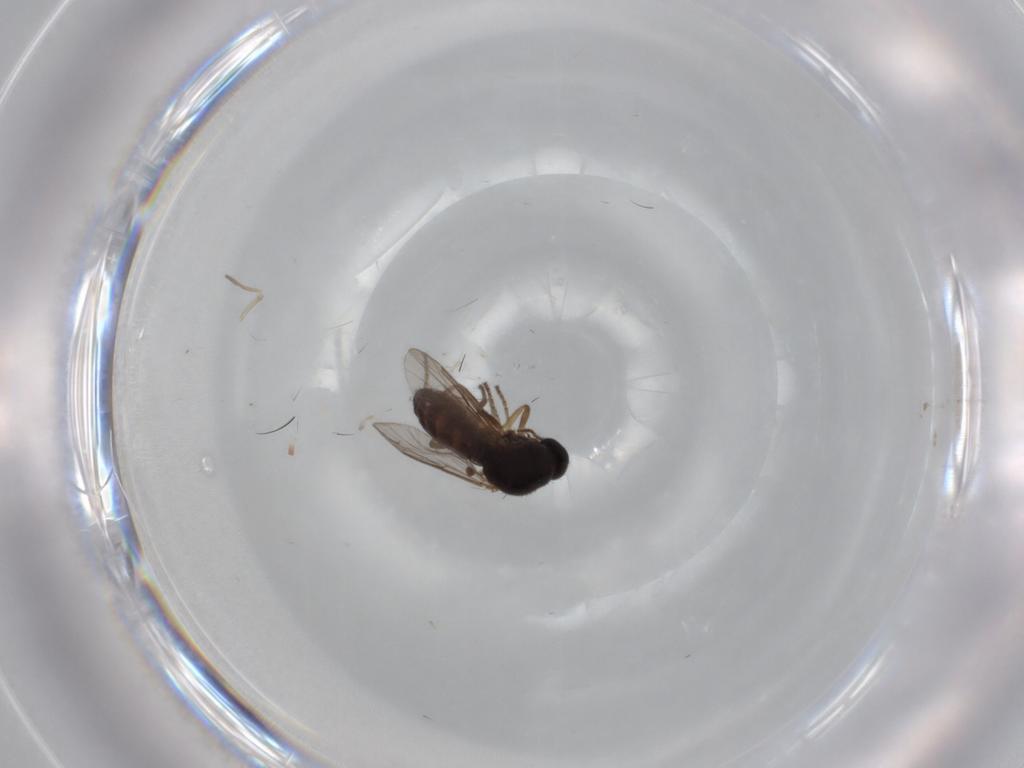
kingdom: Animalia
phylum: Arthropoda
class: Insecta
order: Diptera
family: Ceratopogonidae
